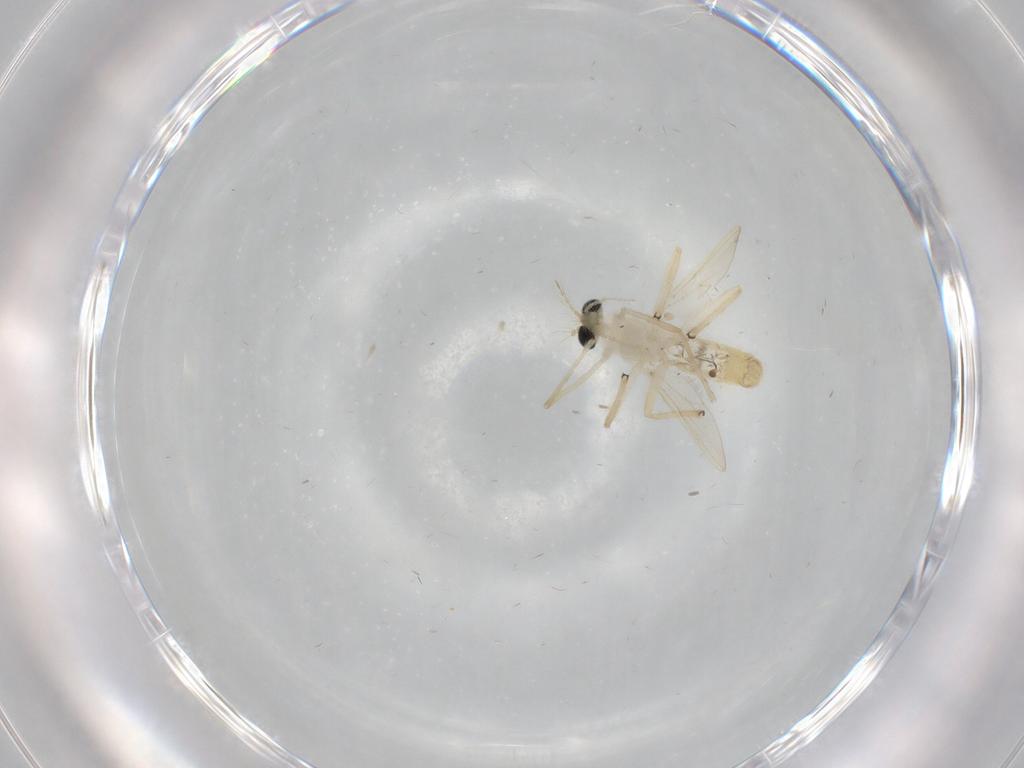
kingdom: Animalia
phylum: Arthropoda
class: Insecta
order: Diptera
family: Chironomidae
